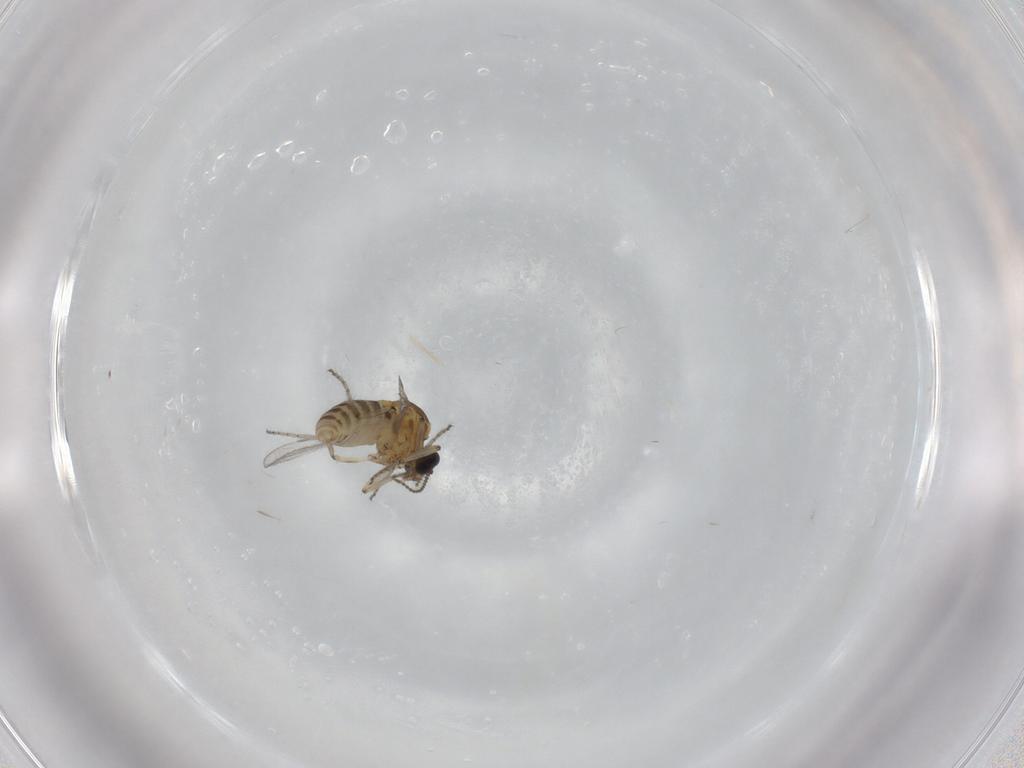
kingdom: Animalia
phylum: Arthropoda
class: Insecta
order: Diptera
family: Ceratopogonidae
